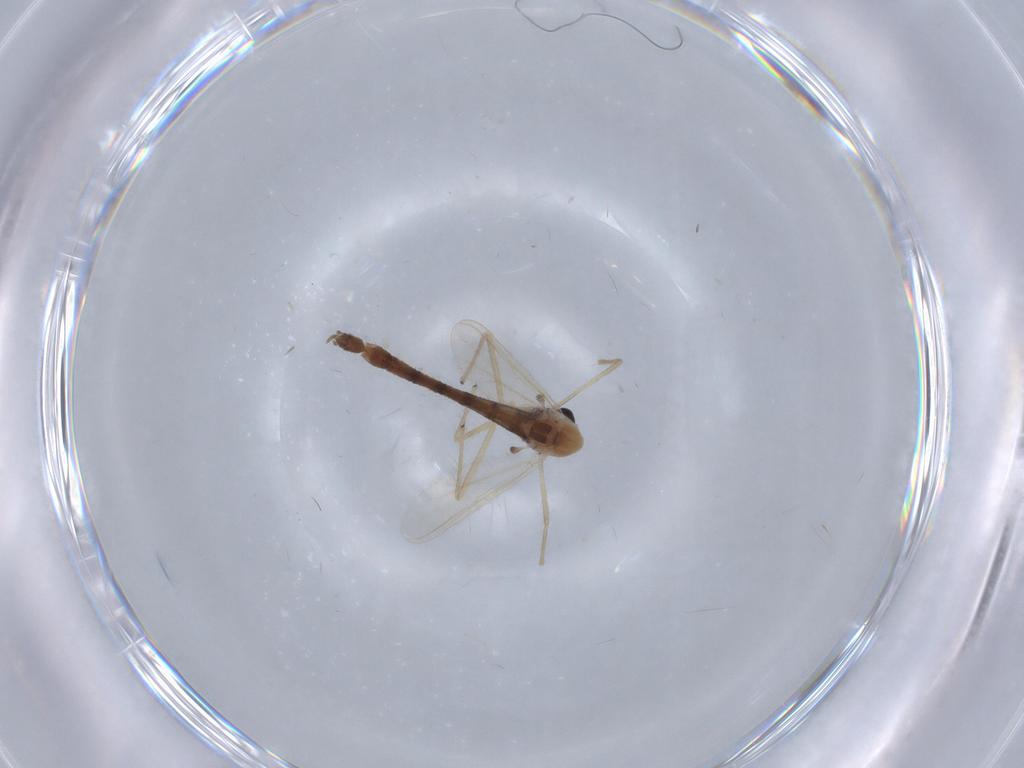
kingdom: Animalia
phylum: Arthropoda
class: Insecta
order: Diptera
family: Chironomidae
